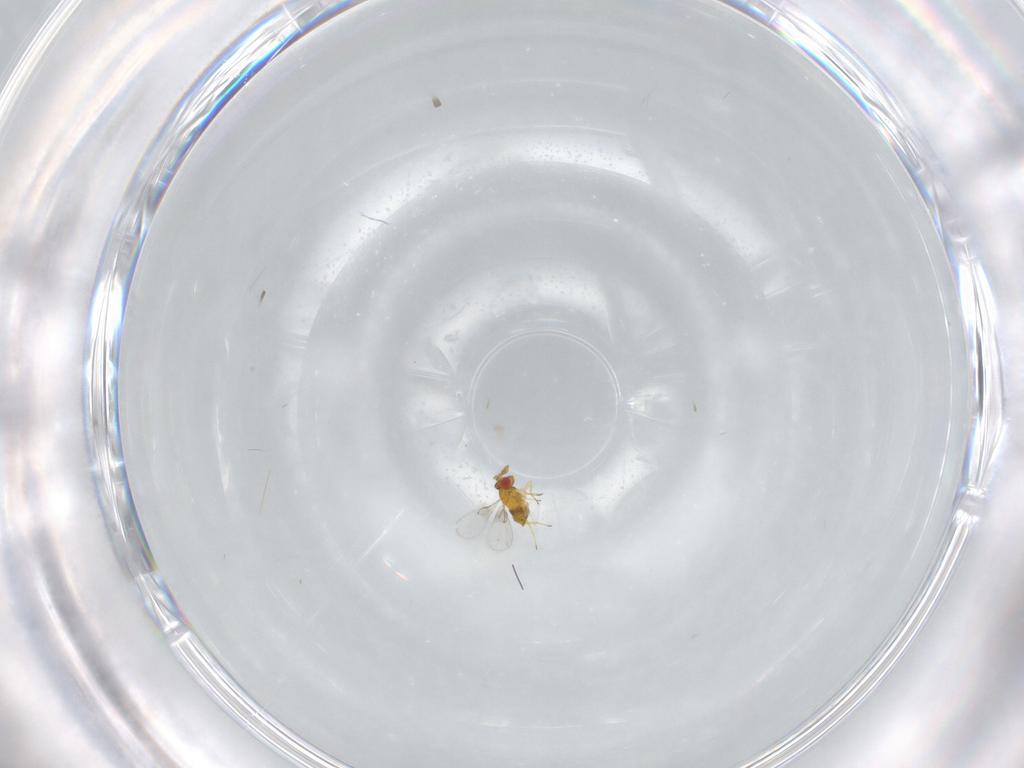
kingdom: Animalia
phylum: Arthropoda
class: Insecta
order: Hymenoptera
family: Trichogrammatidae
